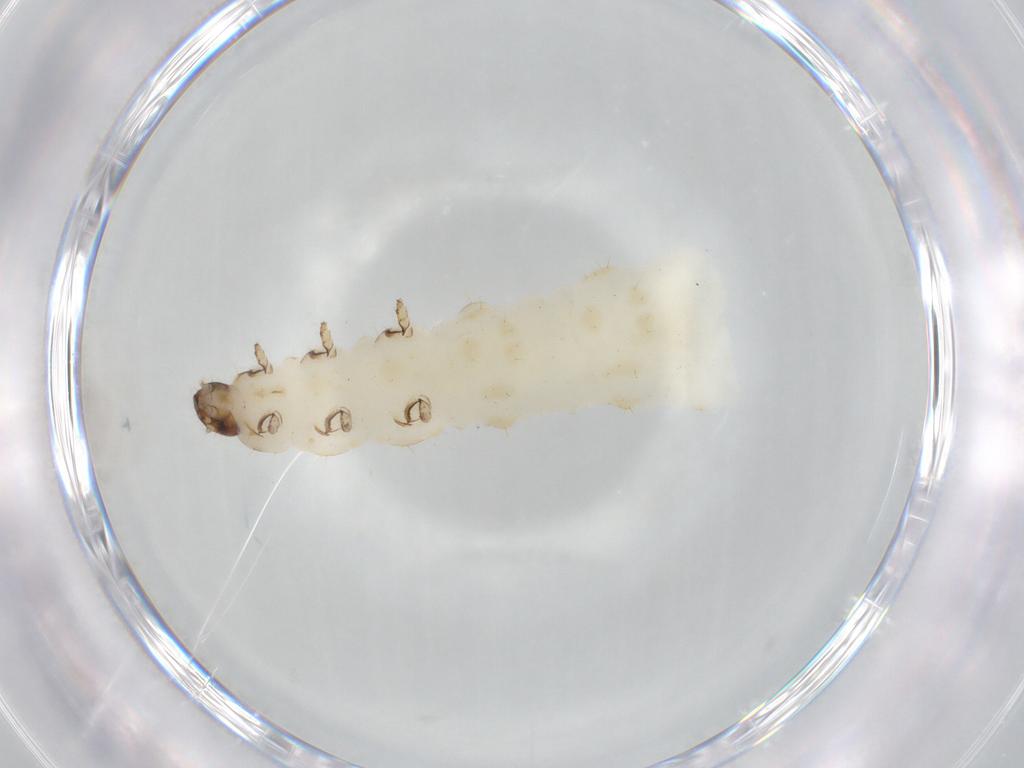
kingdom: Animalia
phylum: Arthropoda
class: Insecta
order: Coleoptera
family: Chrysomelidae
